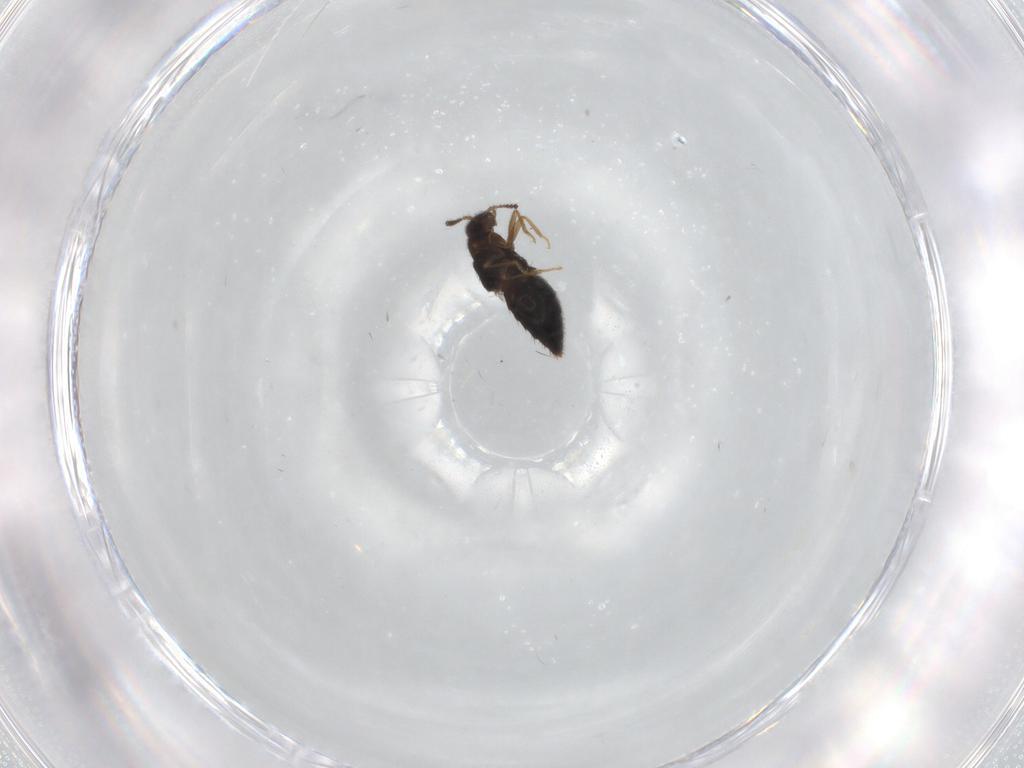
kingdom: Animalia
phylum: Arthropoda
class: Insecta
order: Coleoptera
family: Staphylinidae
